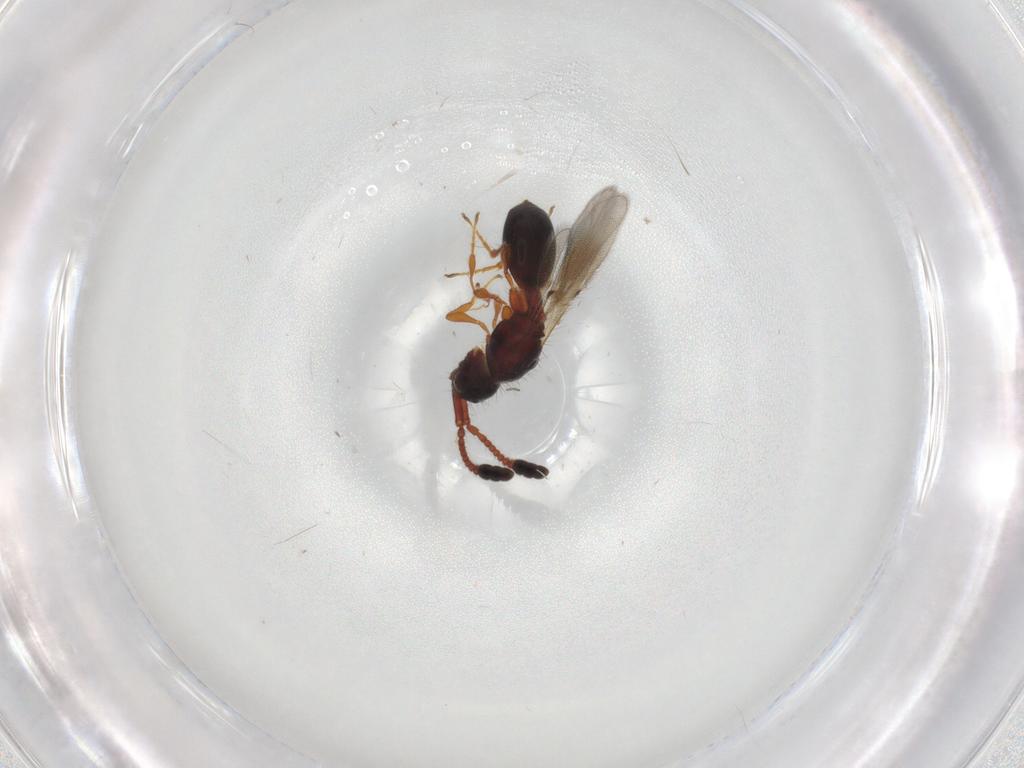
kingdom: Animalia
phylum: Arthropoda
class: Insecta
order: Hymenoptera
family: Diapriidae
